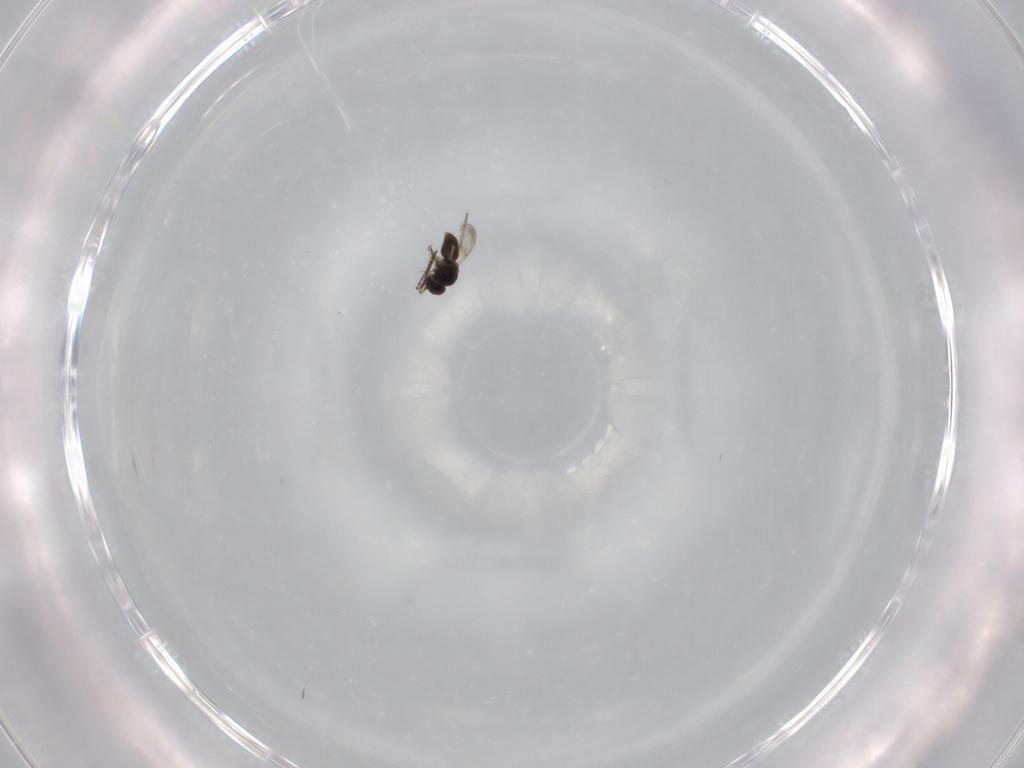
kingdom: Animalia
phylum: Arthropoda
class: Insecta
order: Hymenoptera
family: Ceraphronidae
